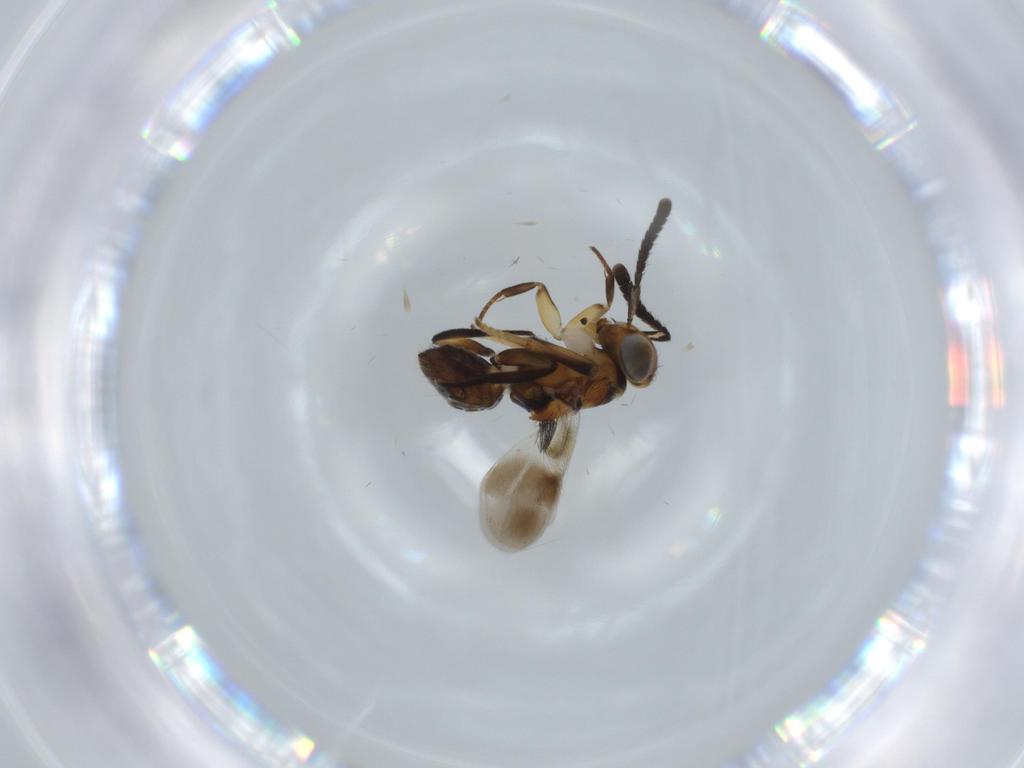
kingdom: Animalia
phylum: Arthropoda
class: Insecta
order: Hymenoptera
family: Encyrtidae
